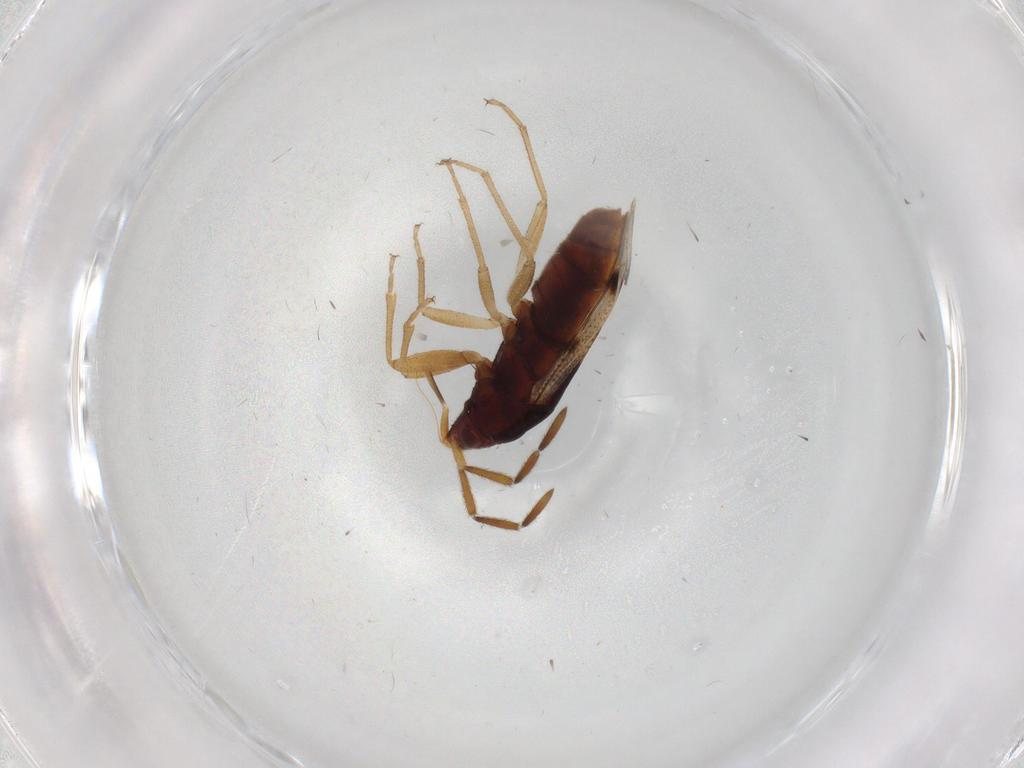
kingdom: Animalia
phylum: Arthropoda
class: Insecta
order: Hemiptera
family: Rhyparochromidae
